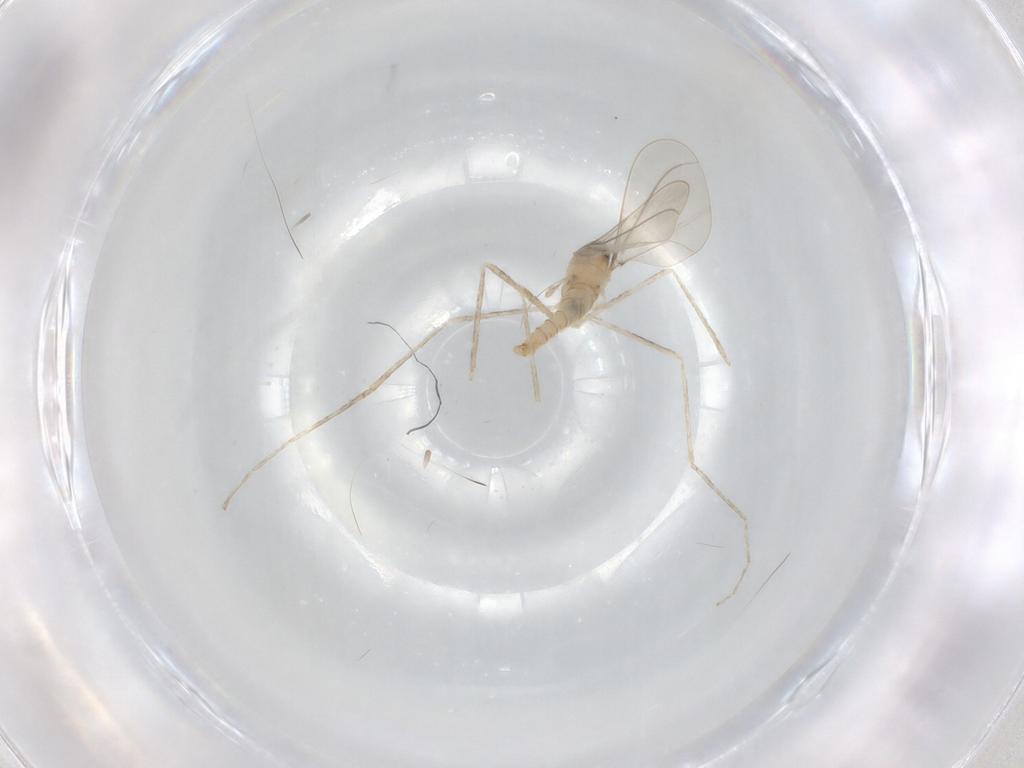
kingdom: Animalia
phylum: Arthropoda
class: Insecta
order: Diptera
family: Cecidomyiidae
